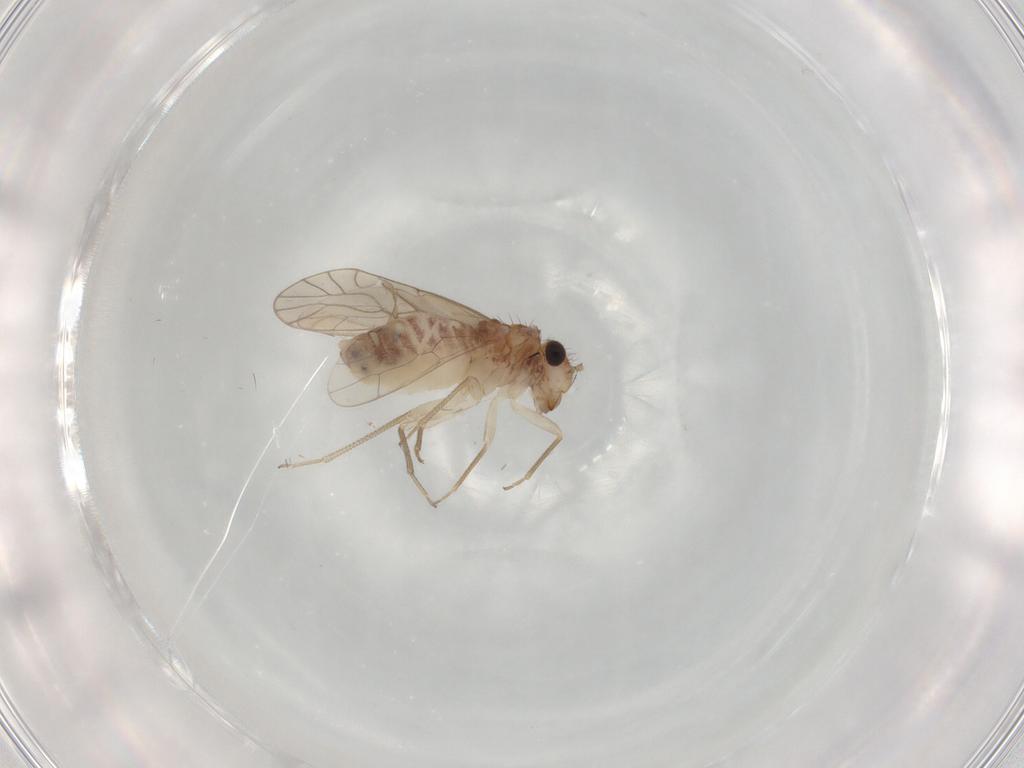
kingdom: Animalia
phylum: Arthropoda
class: Insecta
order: Psocodea
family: Caeciliusidae
